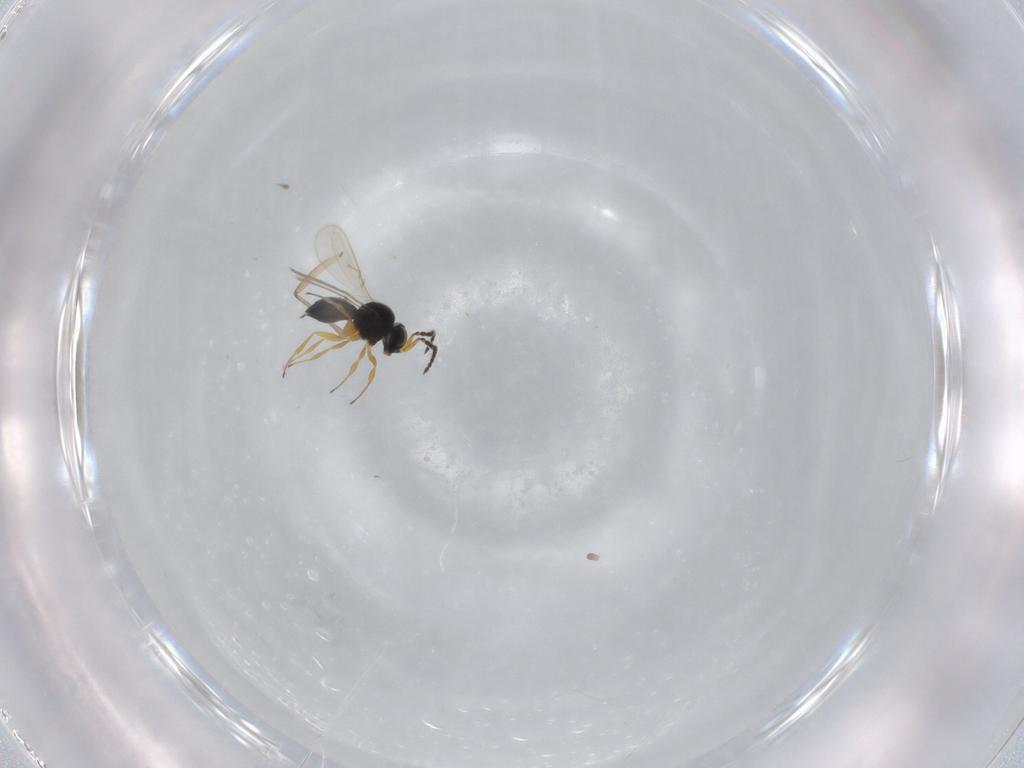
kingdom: Animalia
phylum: Arthropoda
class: Insecta
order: Hymenoptera
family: Scelionidae
